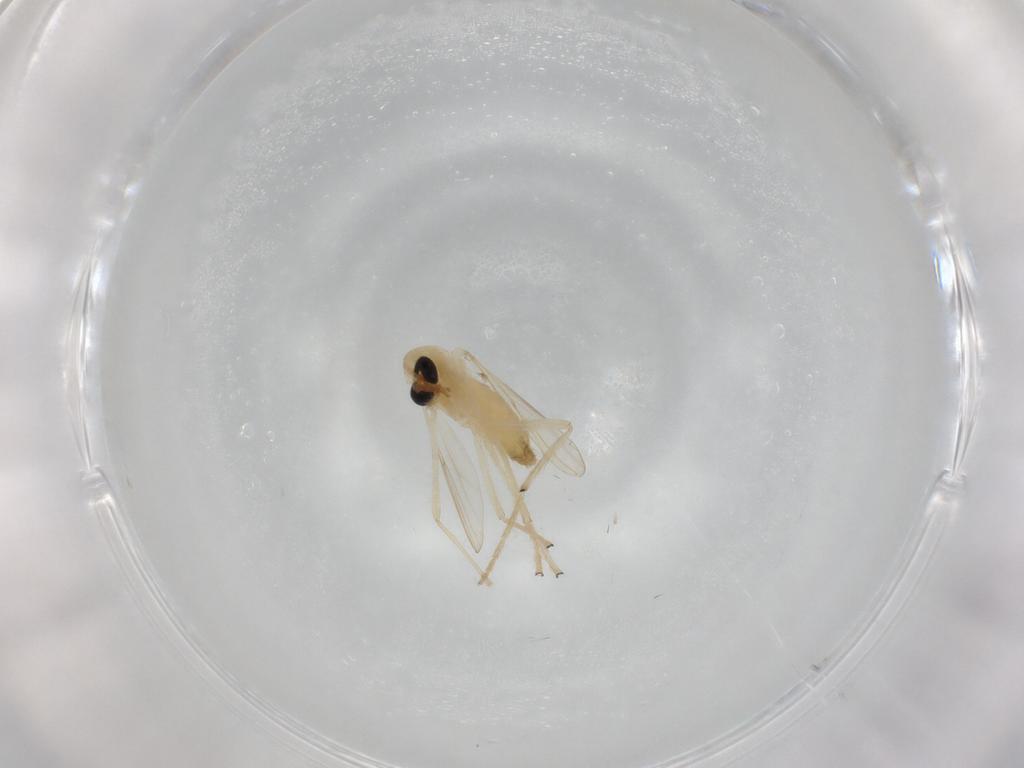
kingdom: Animalia
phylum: Arthropoda
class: Insecta
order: Diptera
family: Chironomidae
